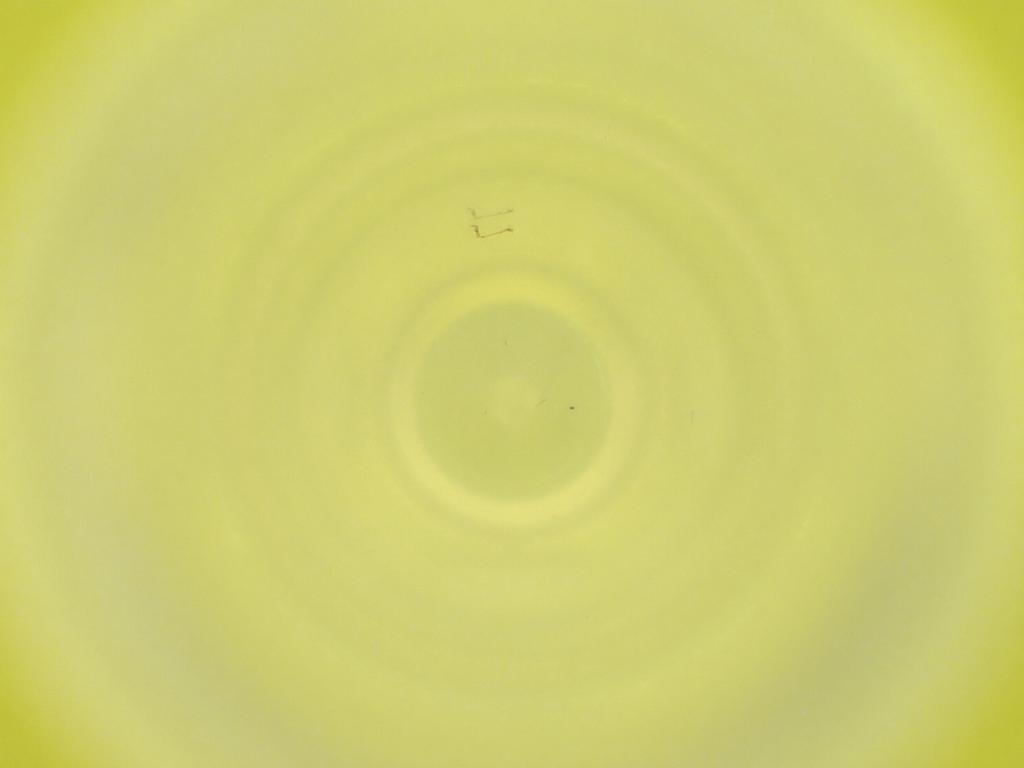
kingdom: Animalia
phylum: Arthropoda
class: Insecta
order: Diptera
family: Cecidomyiidae
